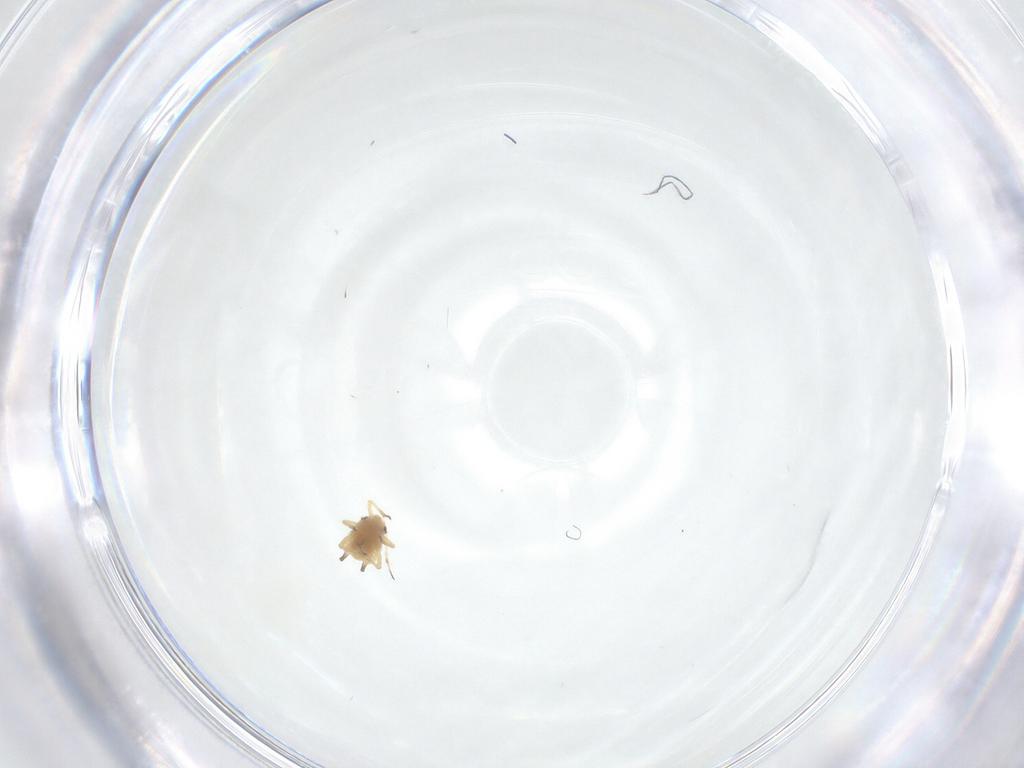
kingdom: Animalia
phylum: Arthropoda
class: Insecta
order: Hemiptera
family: Aphididae
